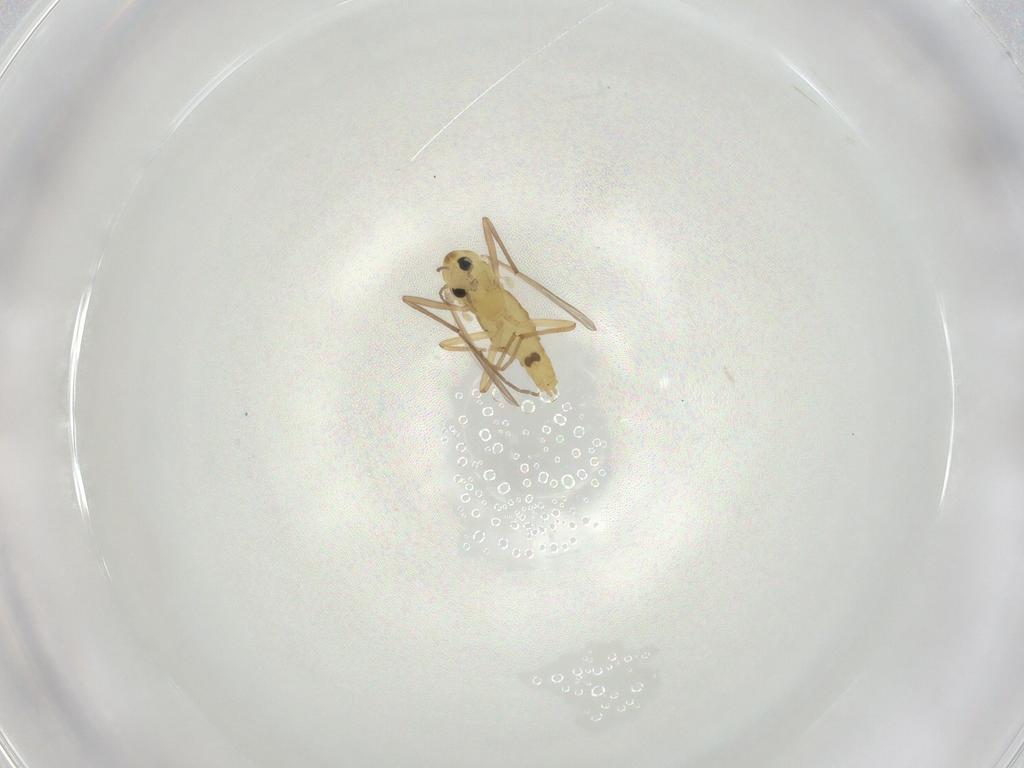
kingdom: Animalia
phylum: Arthropoda
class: Insecta
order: Diptera
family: Chironomidae
